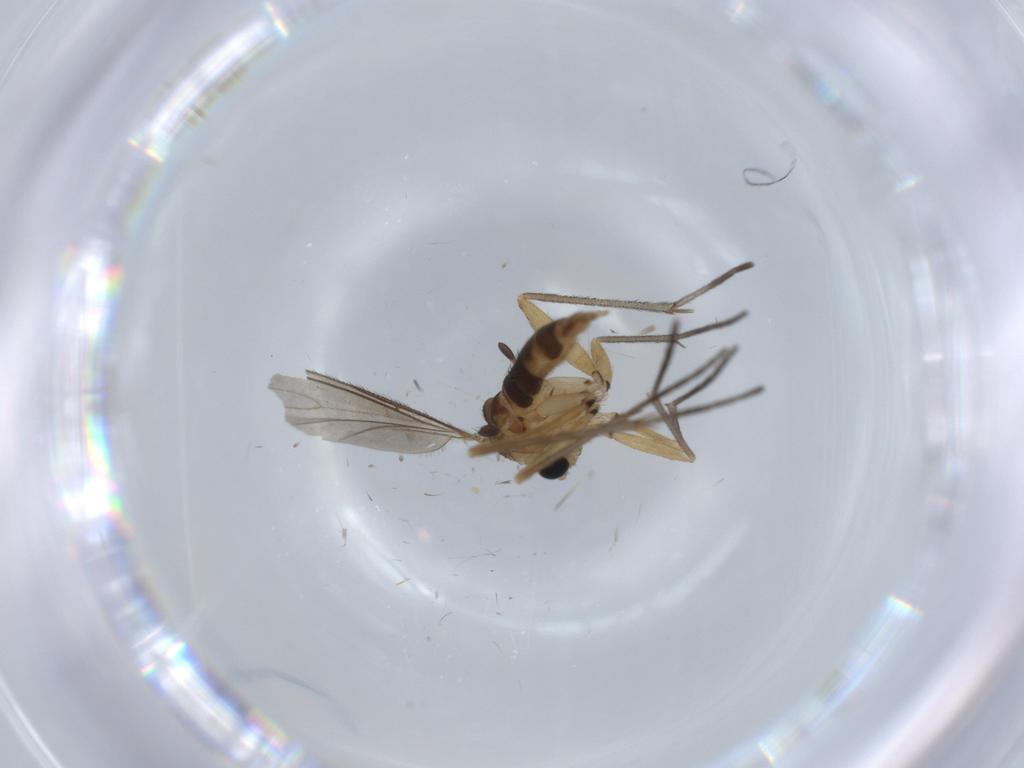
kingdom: Animalia
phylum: Arthropoda
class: Insecta
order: Diptera
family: Sciaridae
